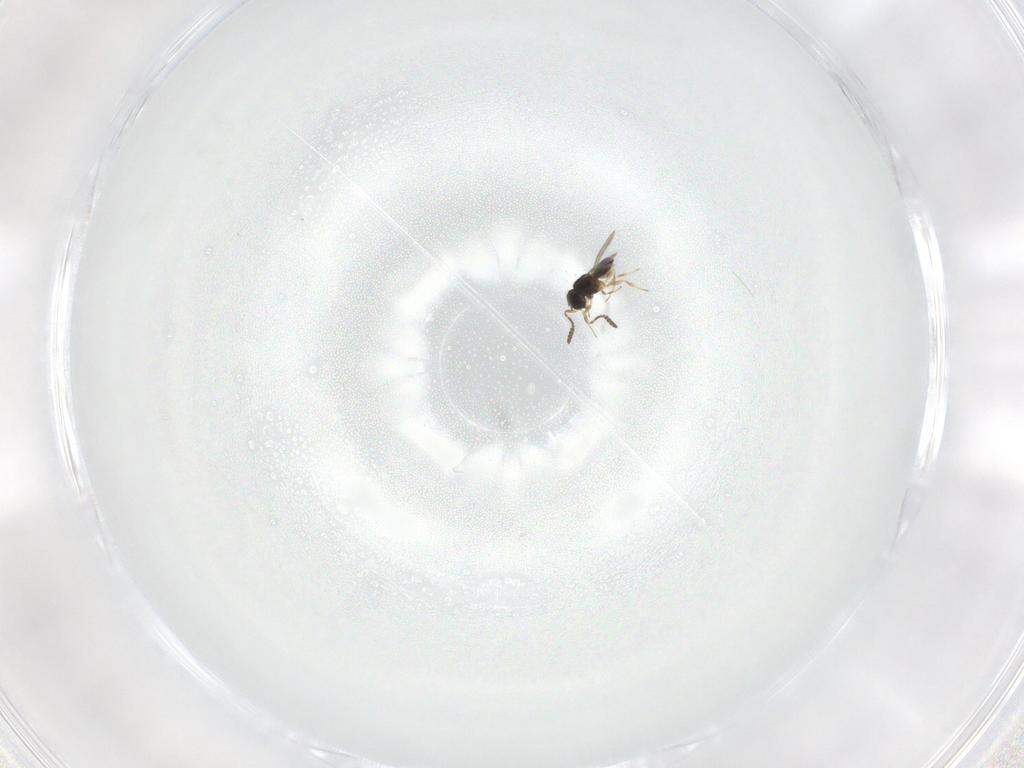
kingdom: Animalia
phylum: Arthropoda
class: Insecta
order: Hymenoptera
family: Scelionidae
